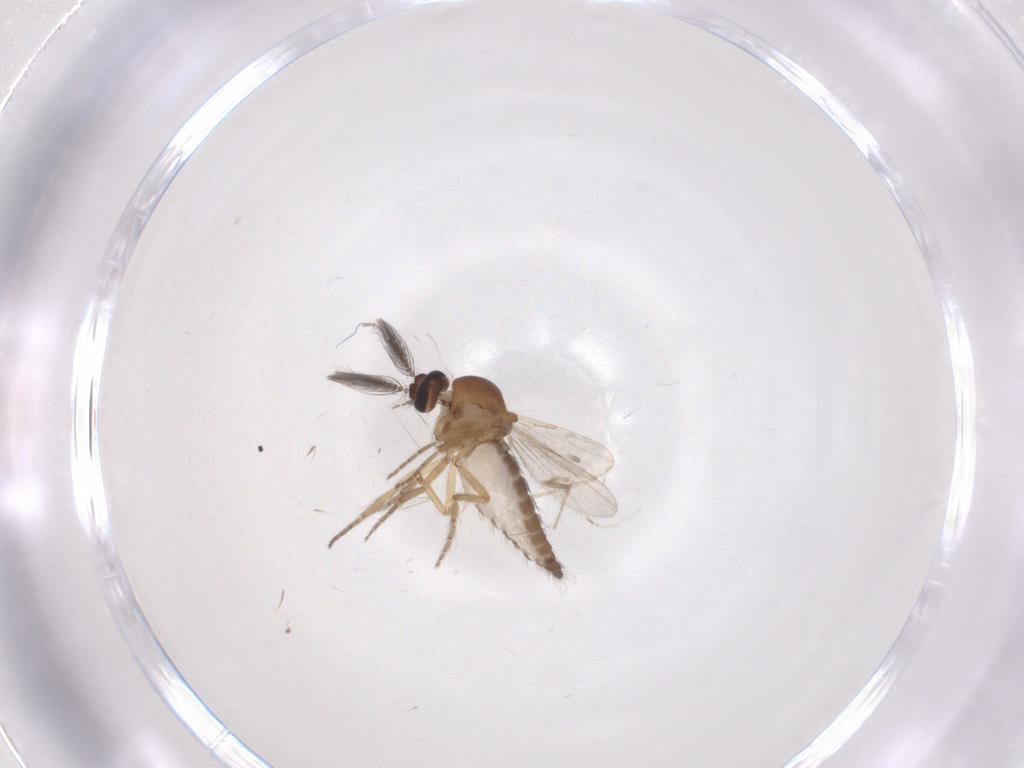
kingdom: Animalia
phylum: Arthropoda
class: Insecta
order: Diptera
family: Ceratopogonidae
